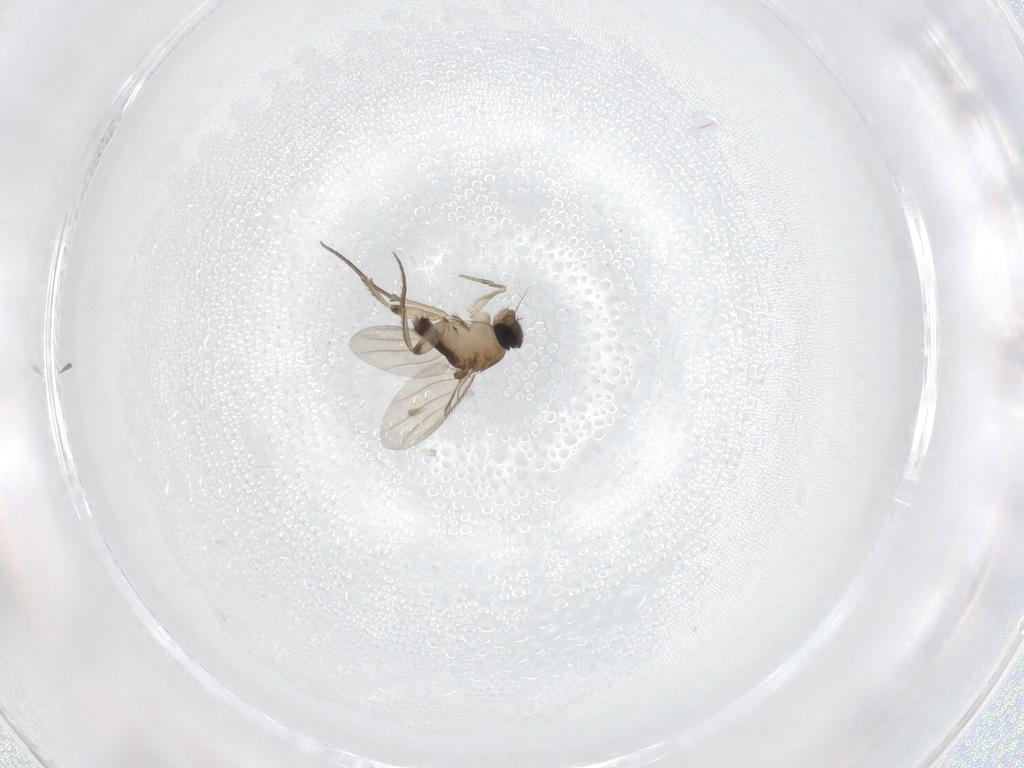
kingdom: Animalia
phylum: Arthropoda
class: Insecta
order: Diptera
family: Phoridae
